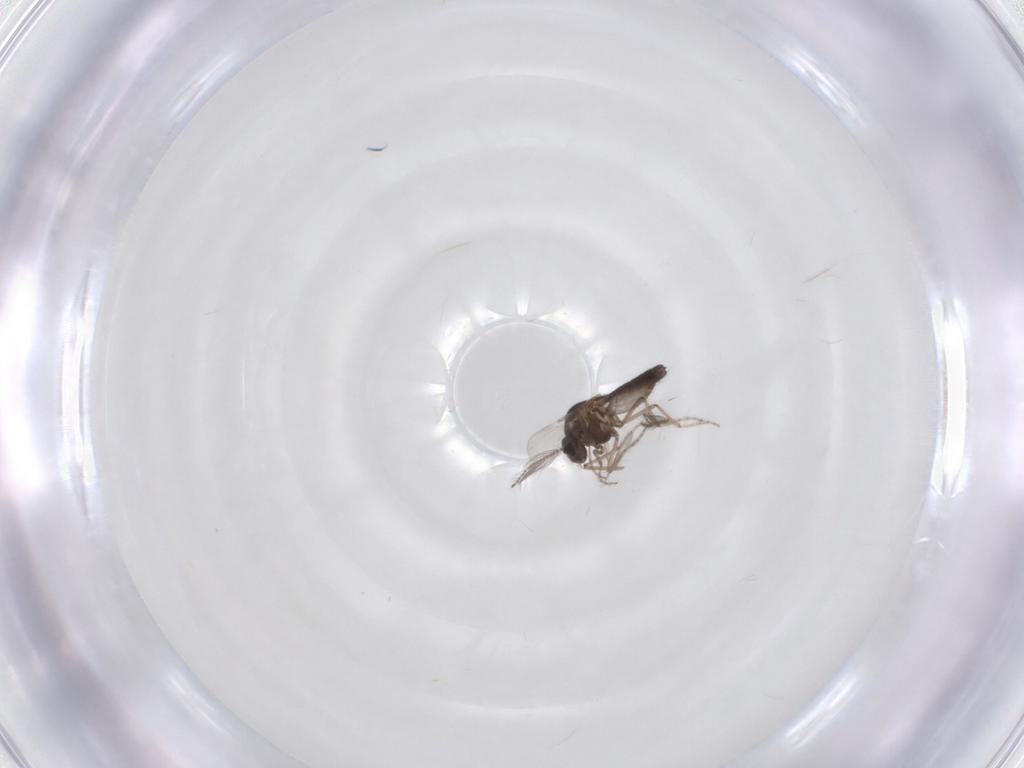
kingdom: Animalia
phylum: Arthropoda
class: Insecta
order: Diptera
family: Ceratopogonidae
